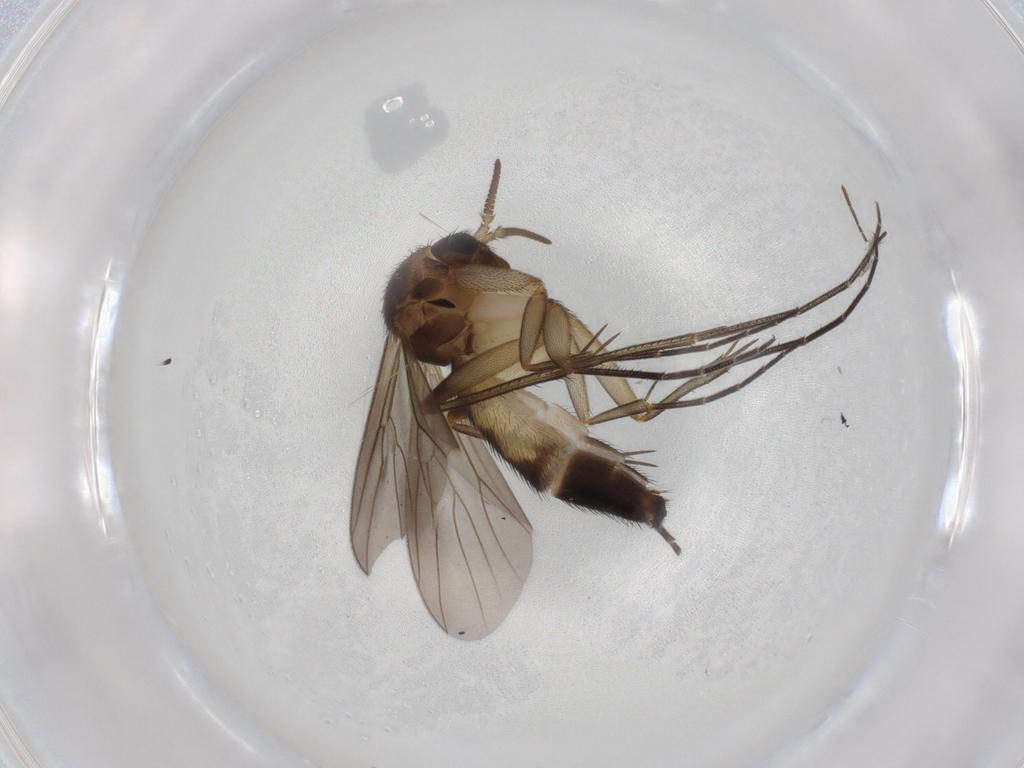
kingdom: Animalia
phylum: Arthropoda
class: Insecta
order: Diptera
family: Mycetophilidae
